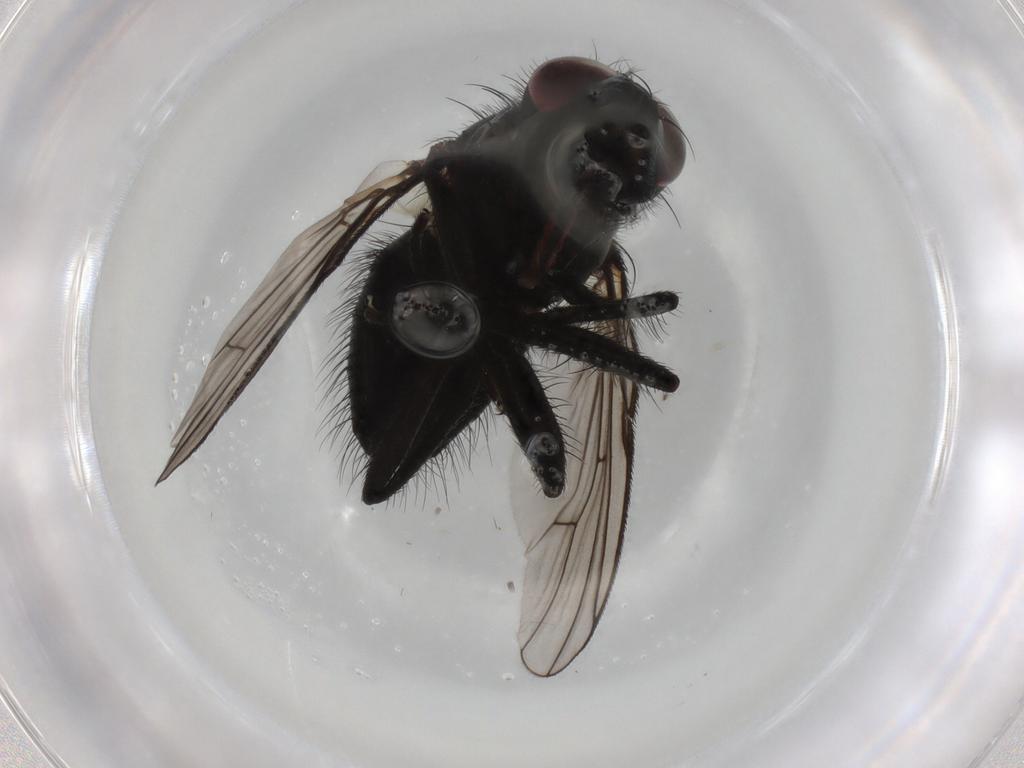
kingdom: Animalia
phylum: Arthropoda
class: Insecta
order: Diptera
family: Muscidae
